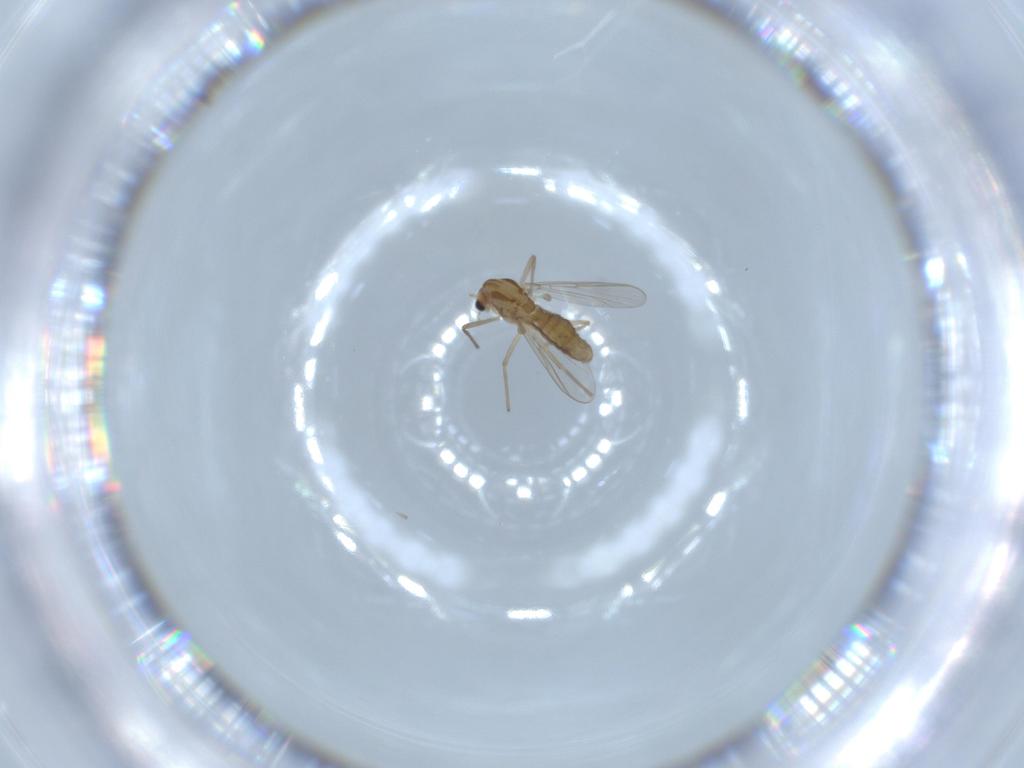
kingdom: Animalia
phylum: Arthropoda
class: Insecta
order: Diptera
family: Chironomidae
